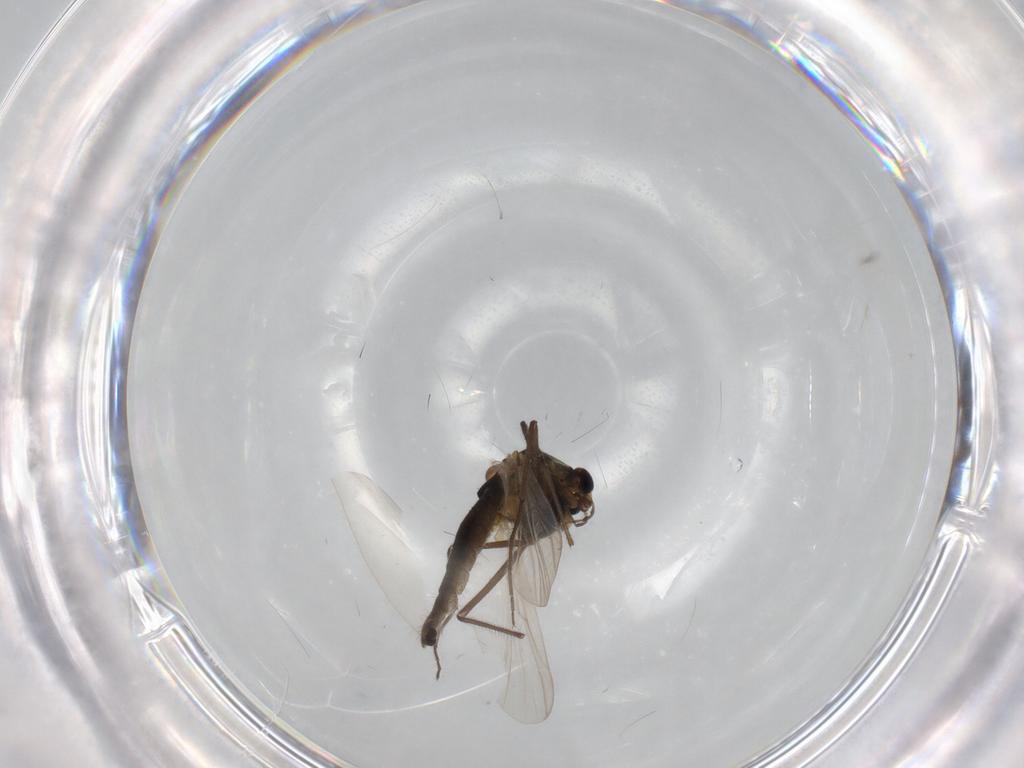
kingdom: Animalia
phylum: Arthropoda
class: Insecta
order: Diptera
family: Chironomidae
